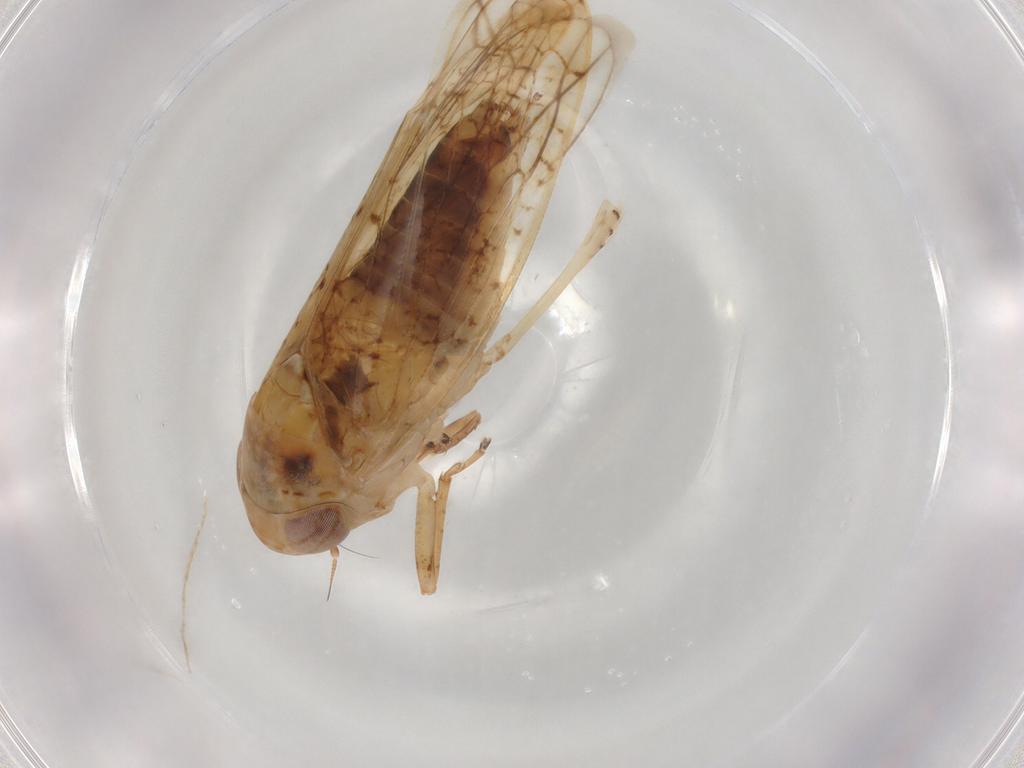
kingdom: Animalia
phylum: Arthropoda
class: Insecta
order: Hemiptera
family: Cicadellidae
